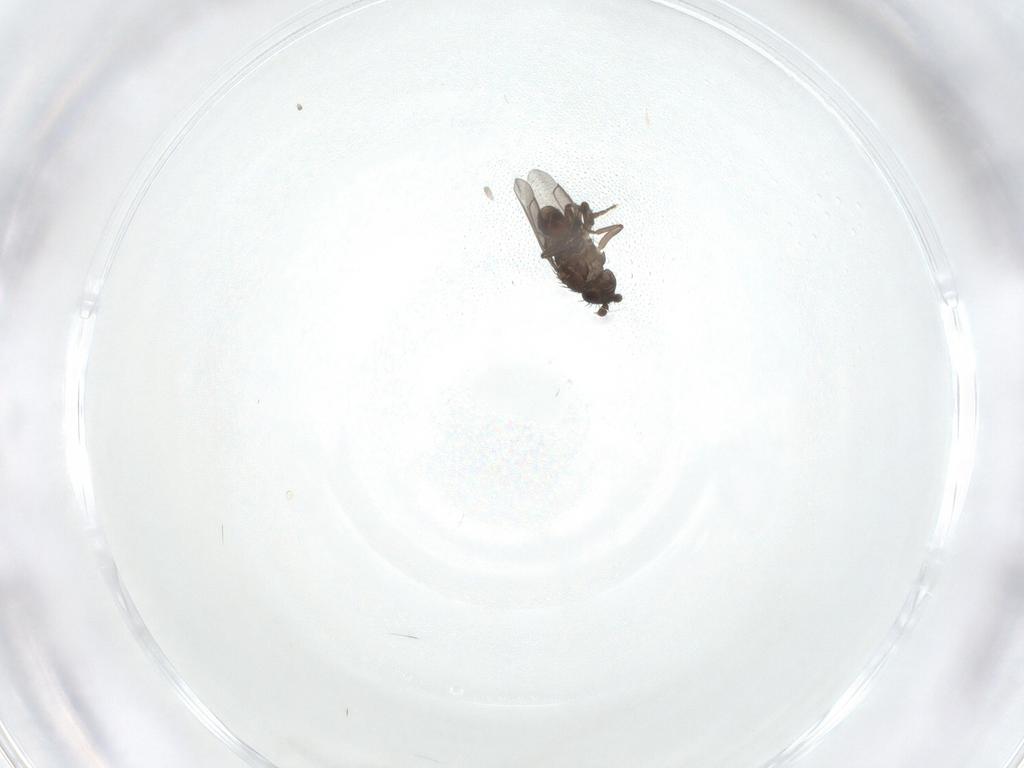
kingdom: Animalia
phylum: Arthropoda
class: Insecta
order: Diptera
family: Sphaeroceridae
